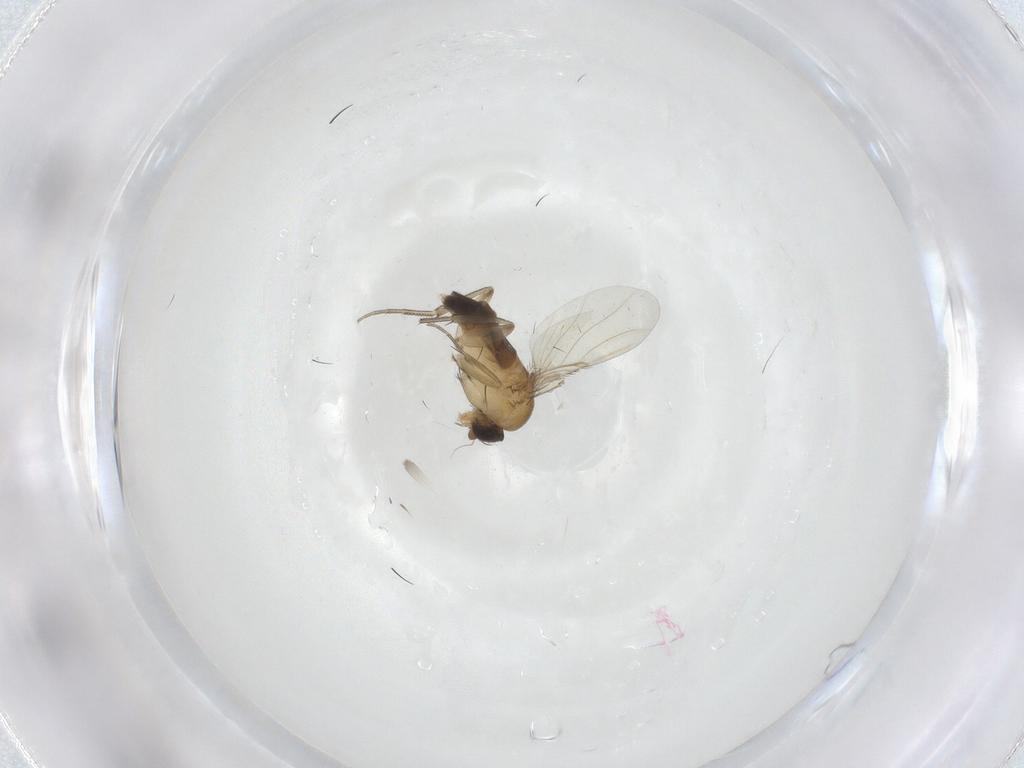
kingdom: Animalia
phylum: Arthropoda
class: Insecta
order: Diptera
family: Phoridae
